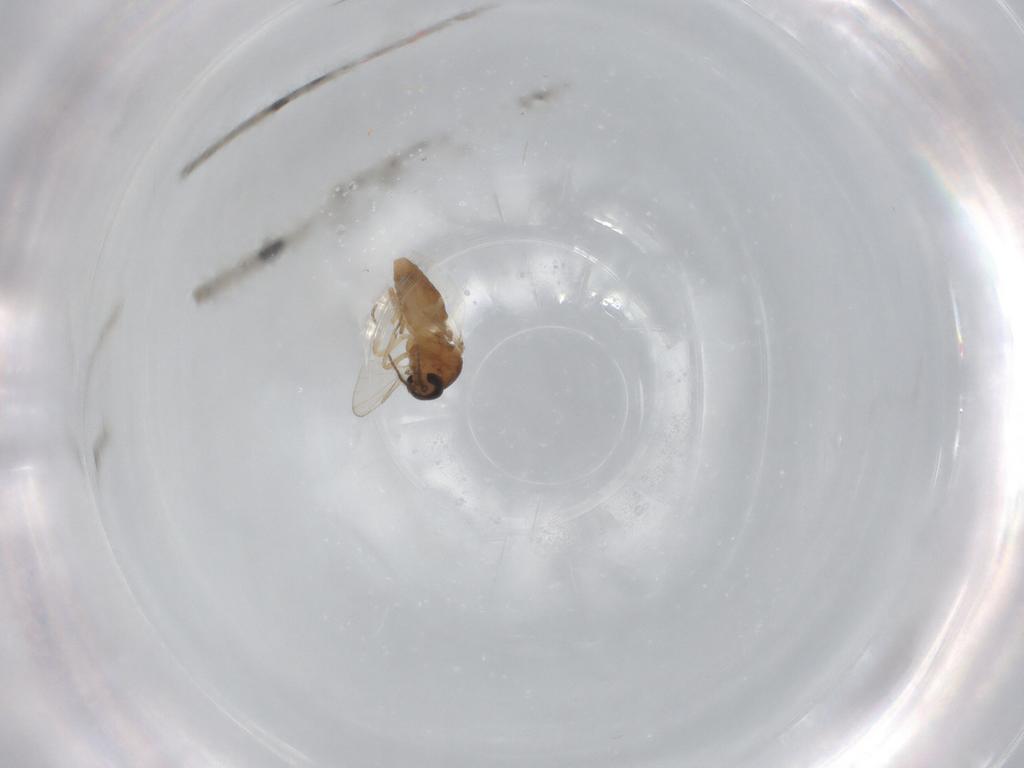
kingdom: Animalia
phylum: Arthropoda
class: Insecta
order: Diptera
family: Ceratopogonidae
